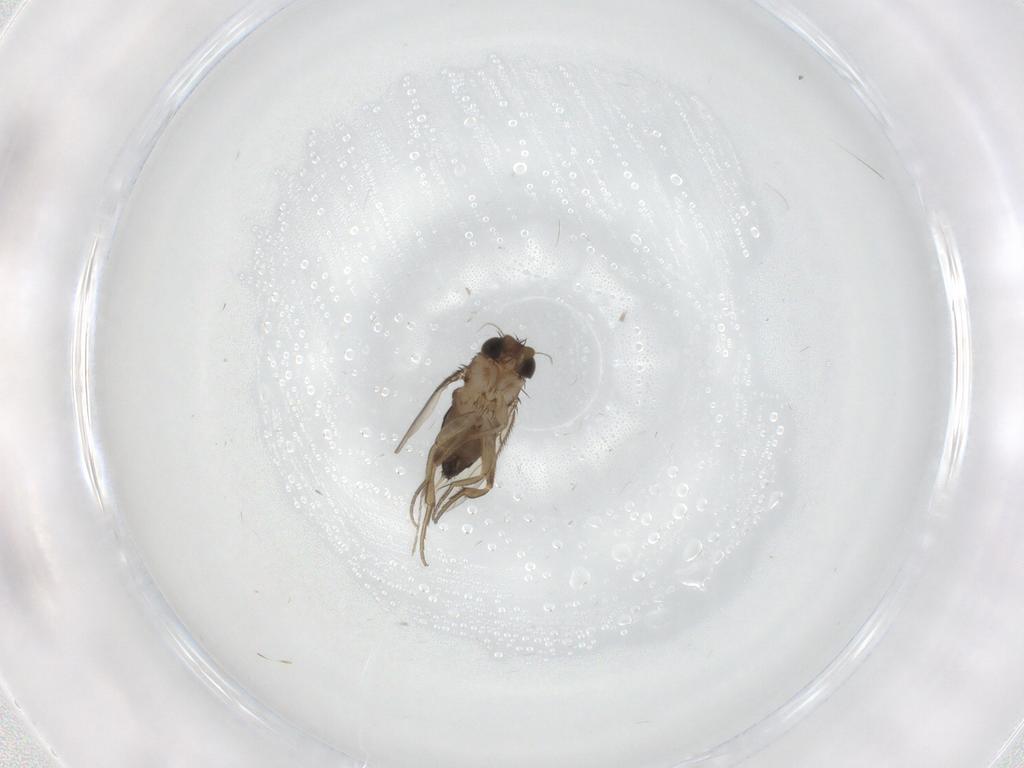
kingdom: Animalia
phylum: Arthropoda
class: Insecta
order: Diptera
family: Phoridae
